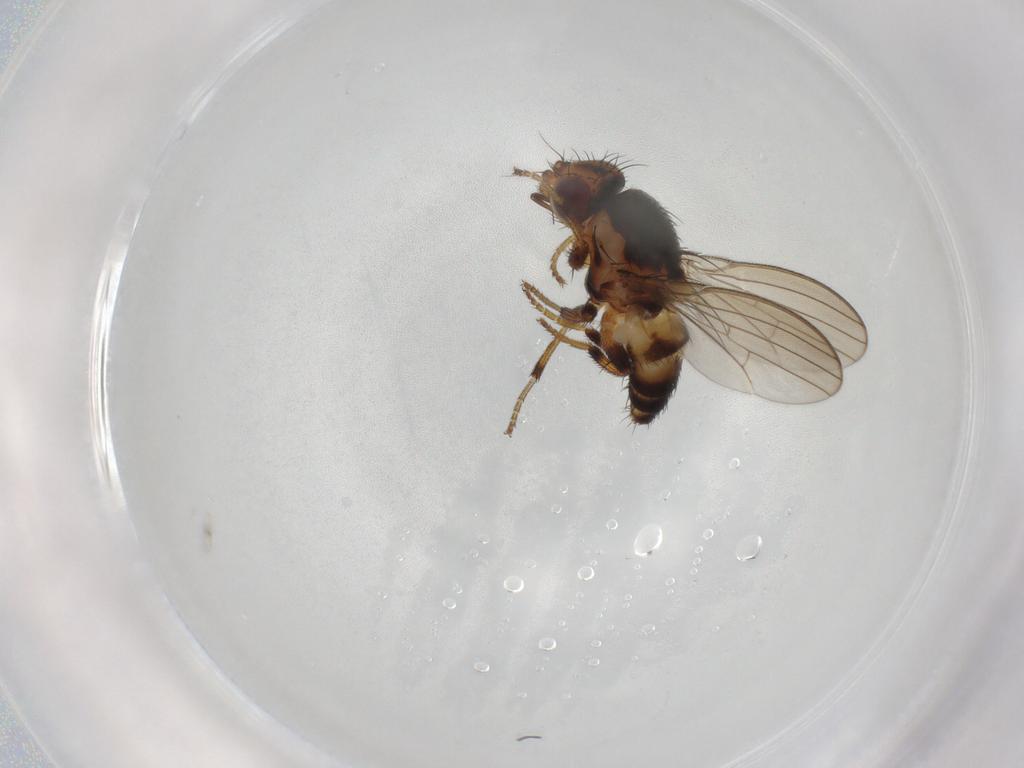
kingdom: Animalia
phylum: Arthropoda
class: Insecta
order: Diptera
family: Milichiidae
